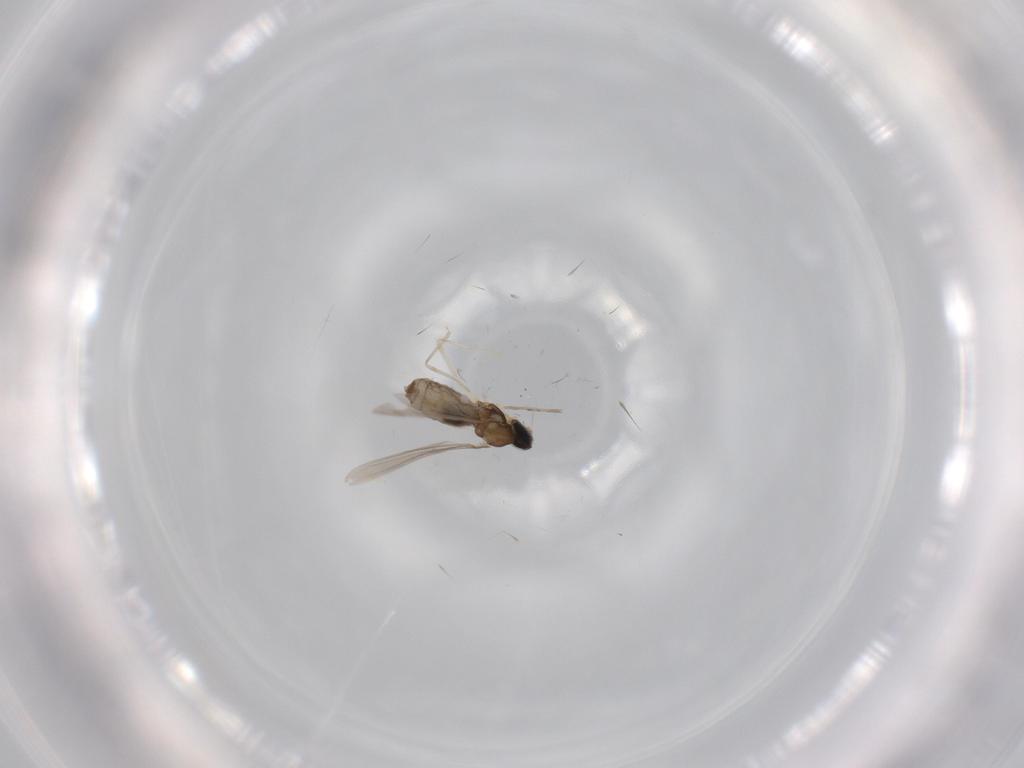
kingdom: Animalia
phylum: Arthropoda
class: Insecta
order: Diptera
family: Cecidomyiidae
